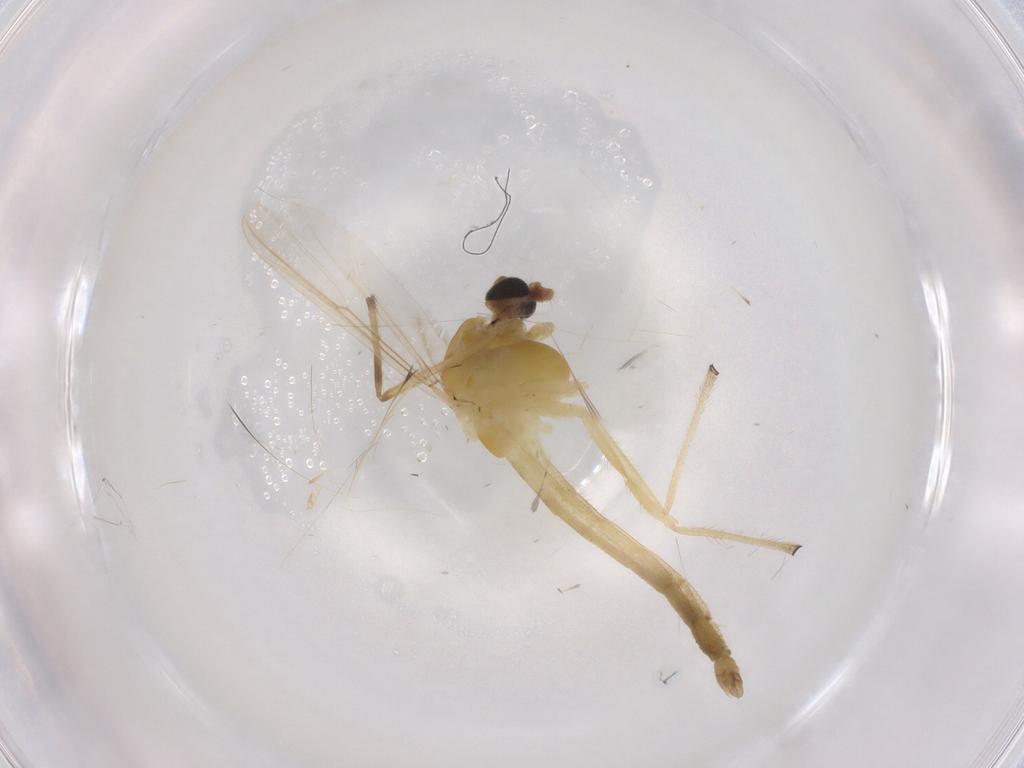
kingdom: Animalia
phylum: Arthropoda
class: Insecta
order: Diptera
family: Chironomidae
